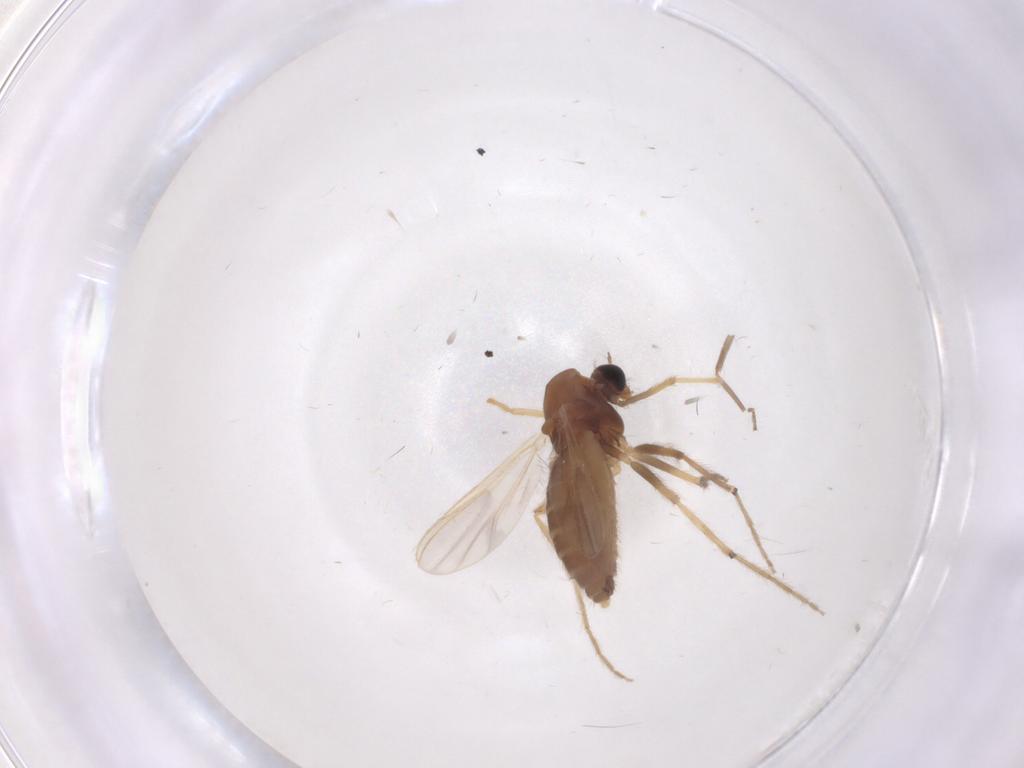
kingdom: Animalia
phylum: Arthropoda
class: Insecta
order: Diptera
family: Chironomidae
